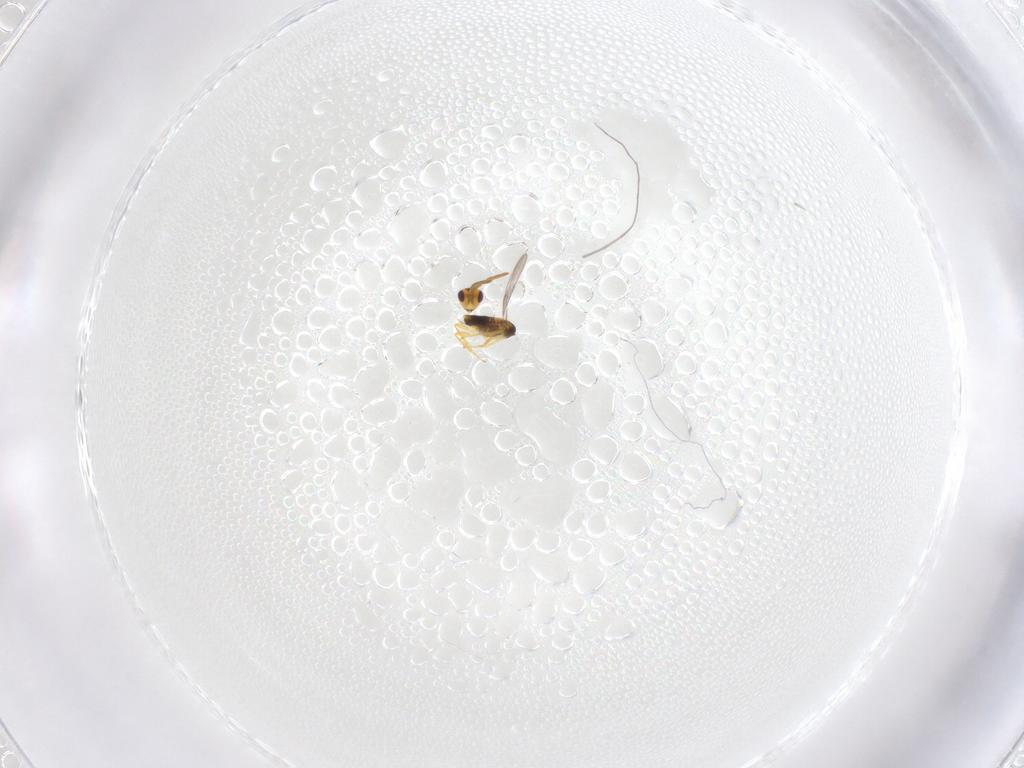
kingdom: Animalia
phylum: Arthropoda
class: Insecta
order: Hymenoptera
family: Aphelinidae
